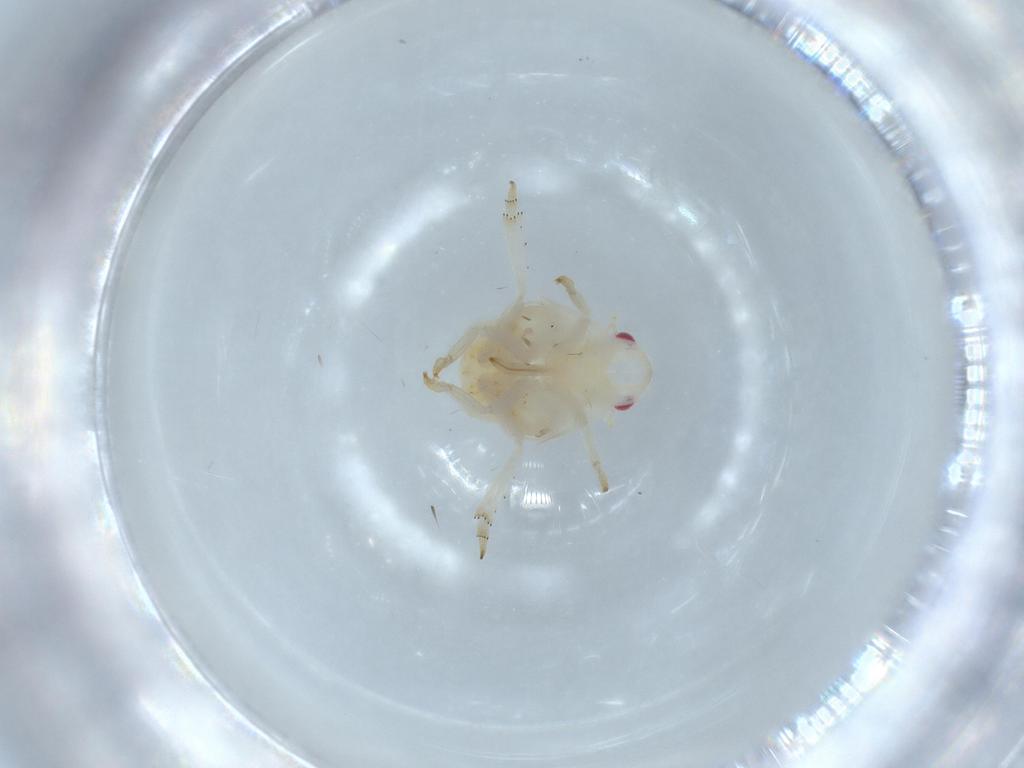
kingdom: Animalia
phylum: Arthropoda
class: Insecta
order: Hemiptera
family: Flatidae
